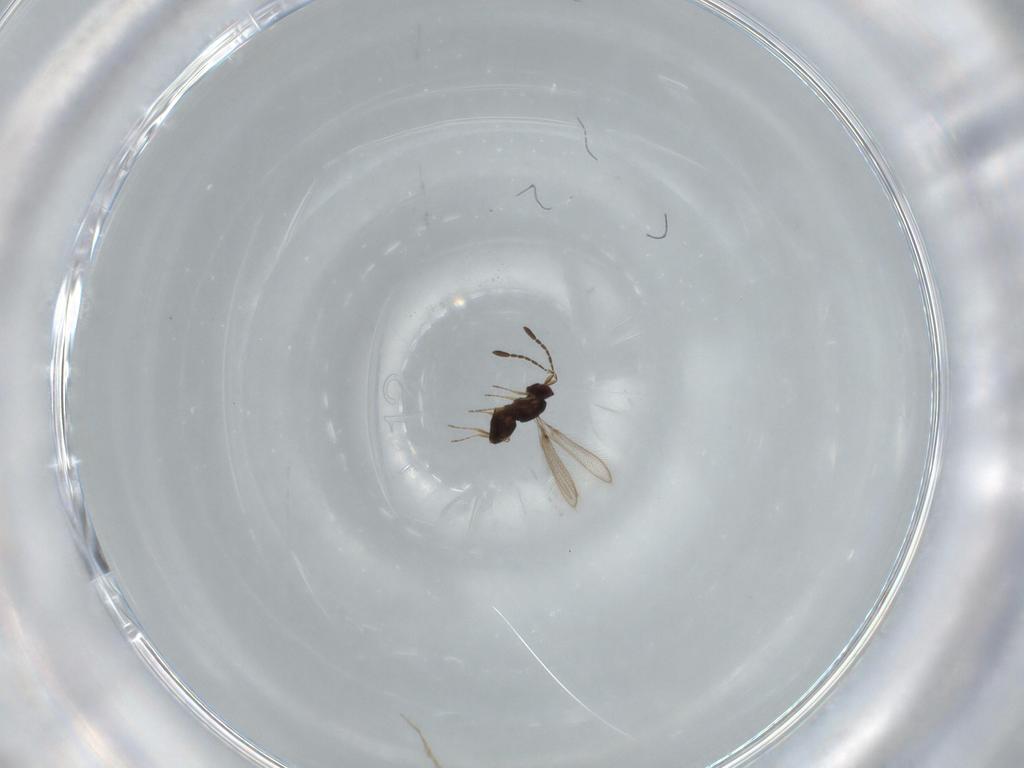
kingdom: Animalia
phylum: Arthropoda
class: Insecta
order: Hymenoptera
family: Mymaridae
